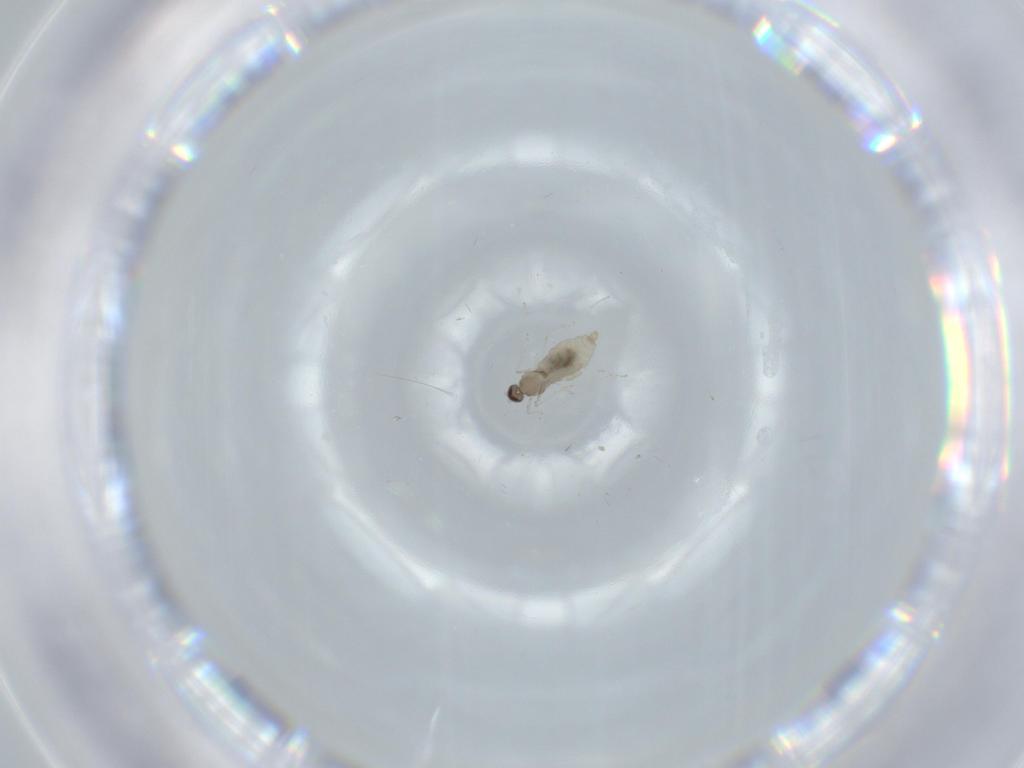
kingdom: Animalia
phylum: Arthropoda
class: Insecta
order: Diptera
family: Cecidomyiidae
